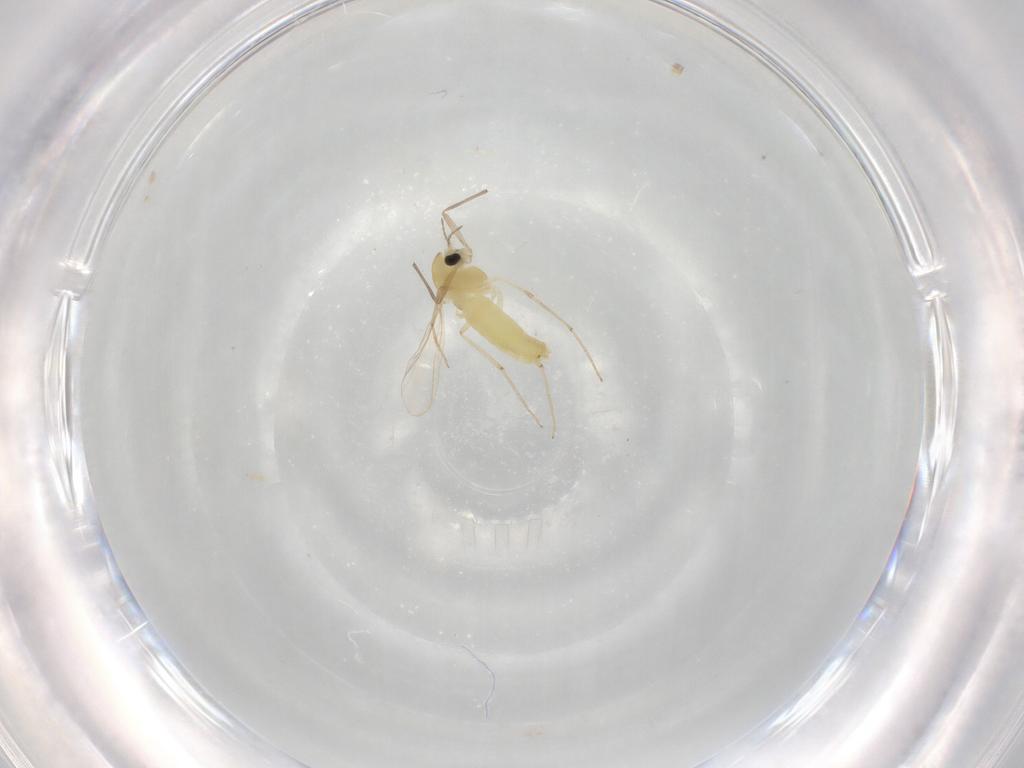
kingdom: Animalia
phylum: Arthropoda
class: Insecta
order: Diptera
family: Chironomidae
